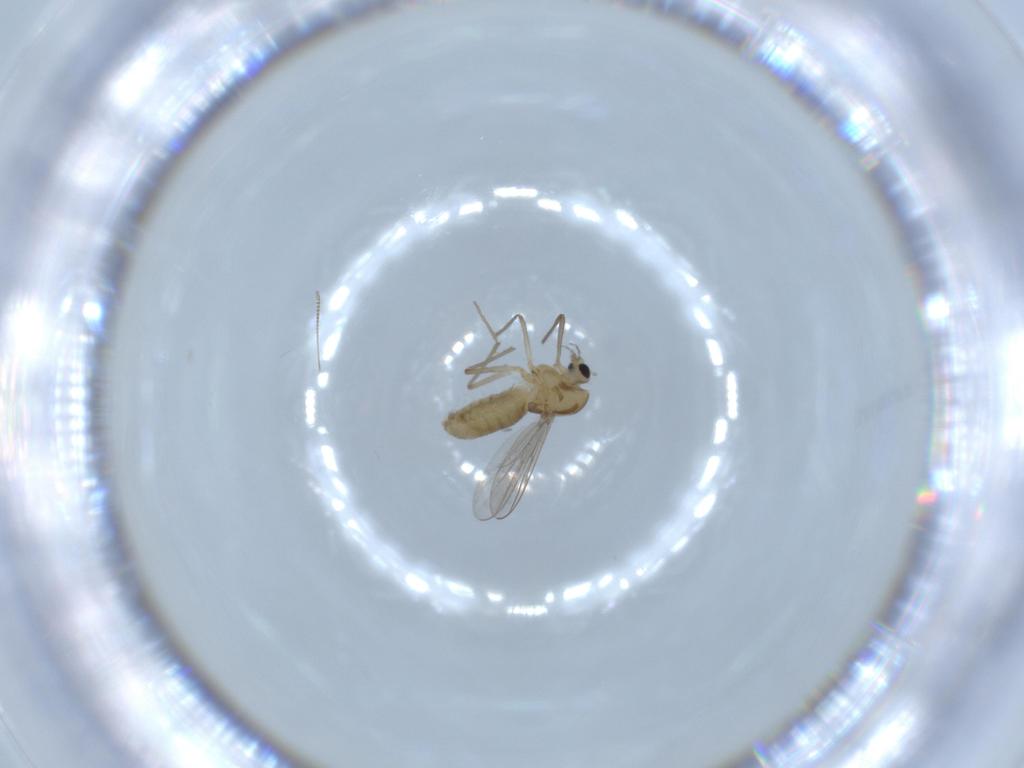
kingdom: Animalia
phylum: Arthropoda
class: Insecta
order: Diptera
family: Chironomidae
